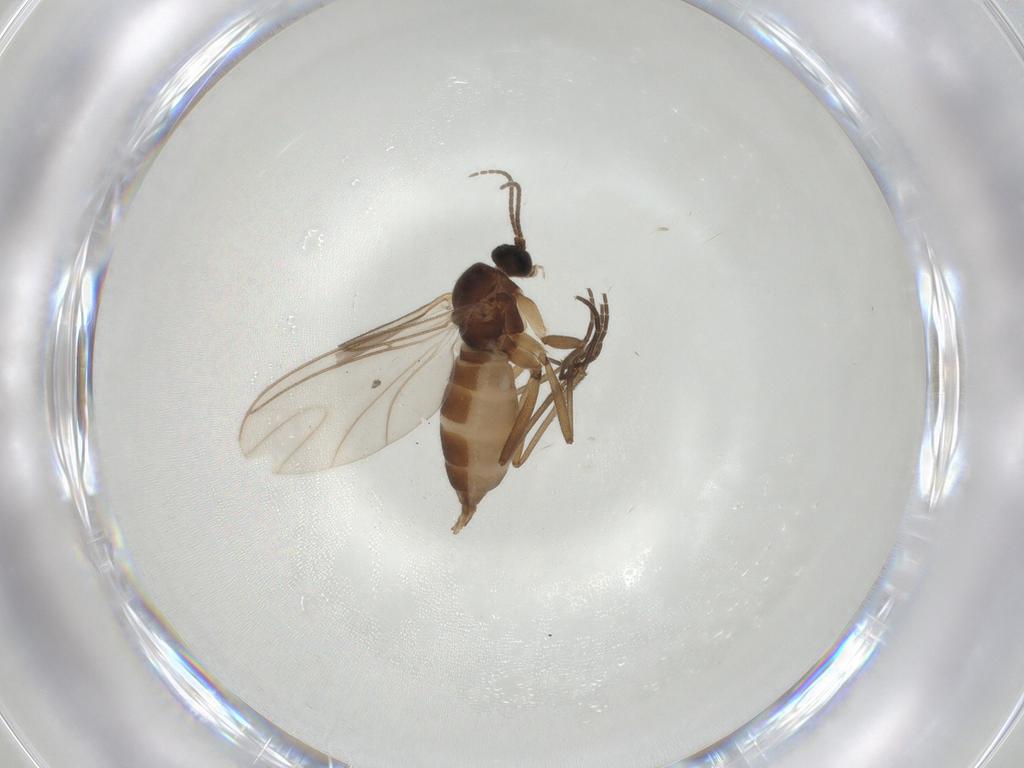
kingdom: Animalia
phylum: Arthropoda
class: Insecta
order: Diptera
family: Sciaridae
